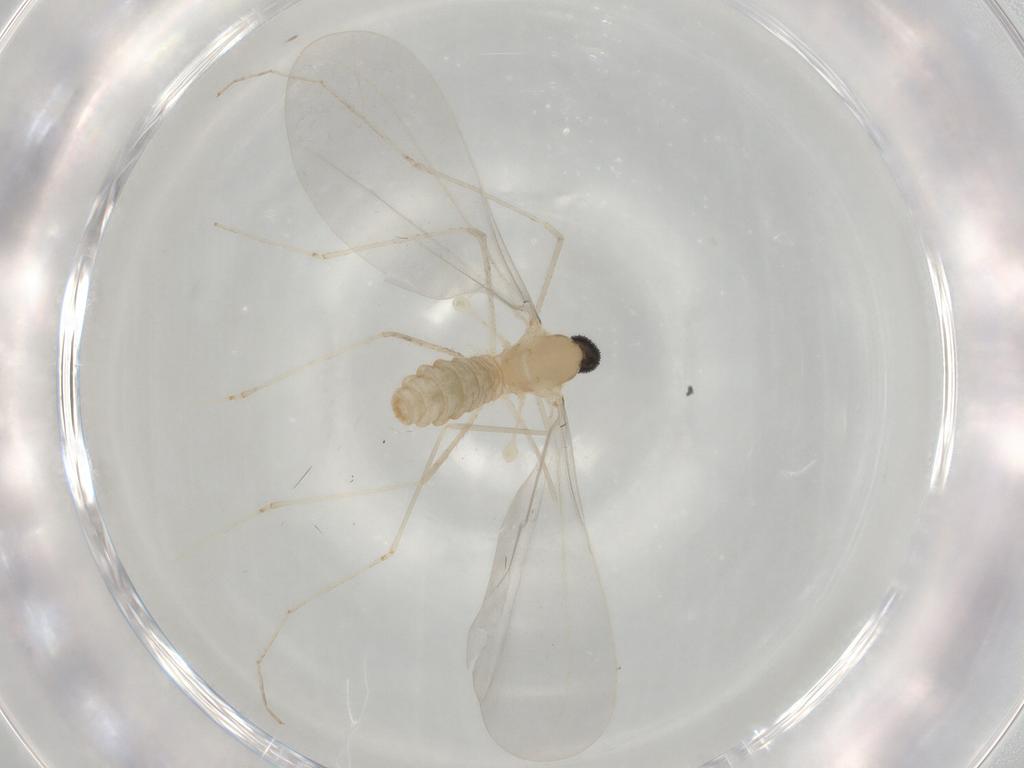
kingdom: Animalia
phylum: Arthropoda
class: Insecta
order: Diptera
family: Cecidomyiidae
